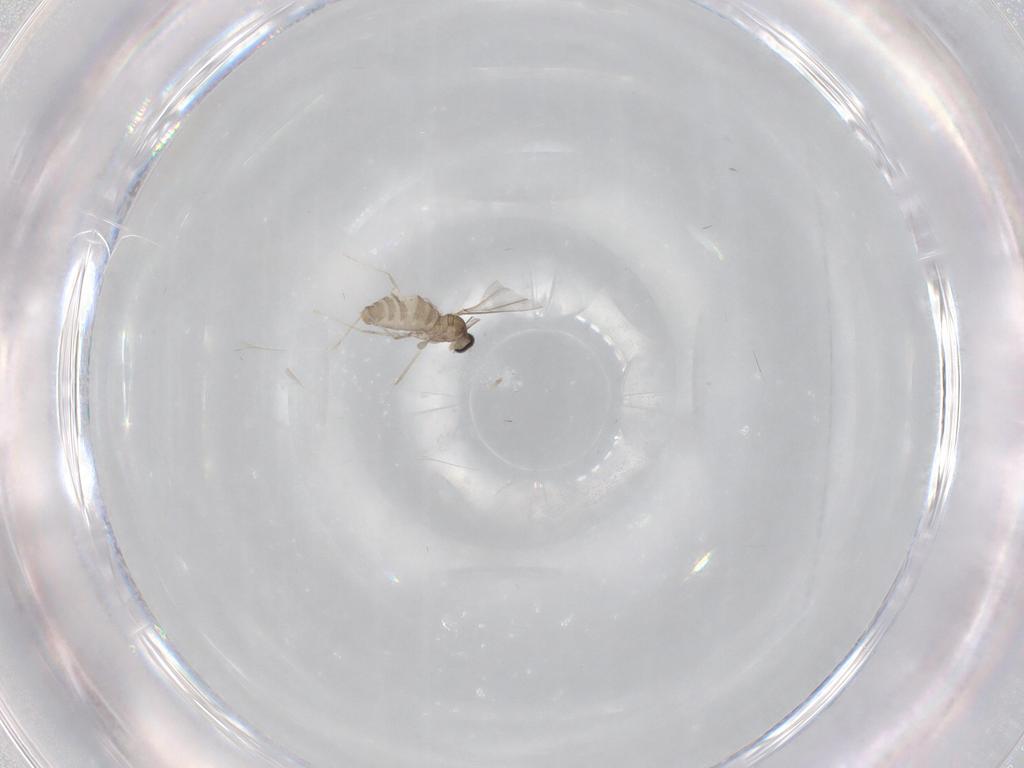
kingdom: Animalia
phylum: Arthropoda
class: Insecta
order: Diptera
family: Cecidomyiidae
